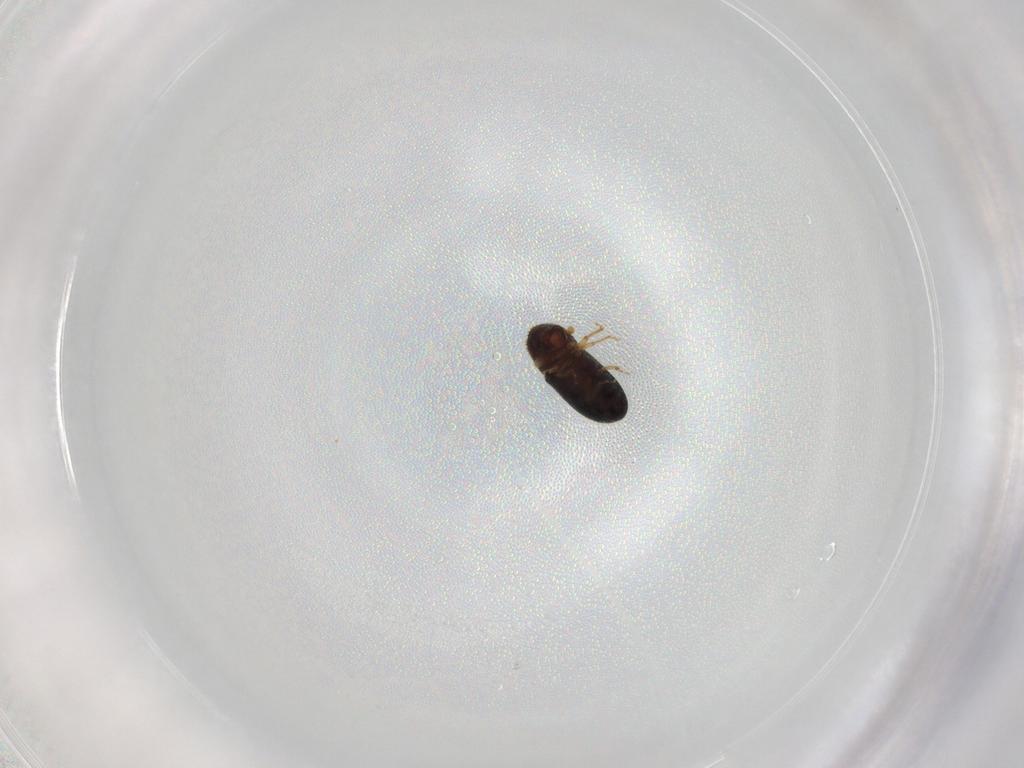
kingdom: Animalia
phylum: Arthropoda
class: Insecta
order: Coleoptera
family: Curculionidae
